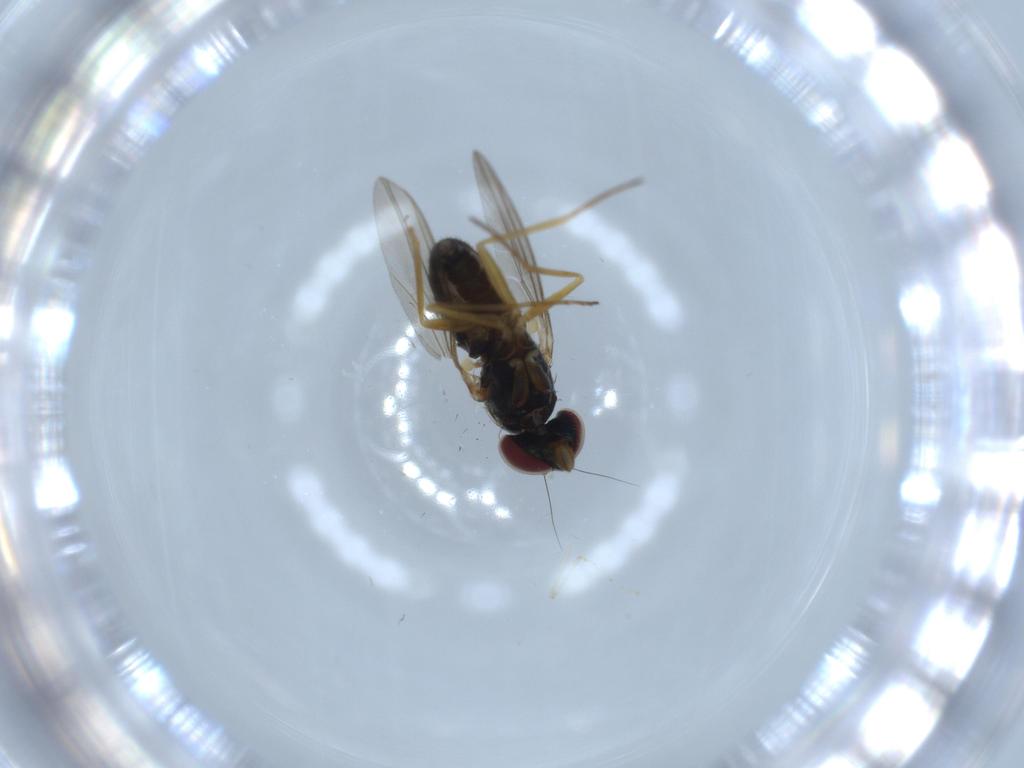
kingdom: Animalia
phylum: Arthropoda
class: Insecta
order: Diptera
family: Dolichopodidae
